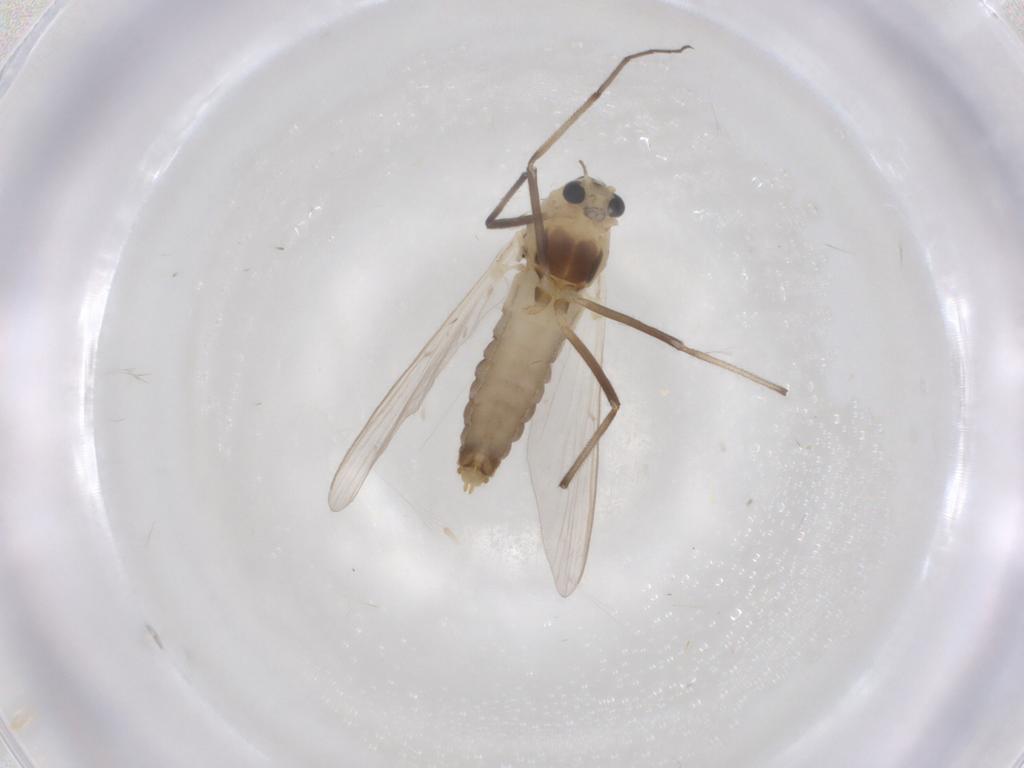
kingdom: Animalia
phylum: Arthropoda
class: Insecta
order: Diptera
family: Chironomidae
